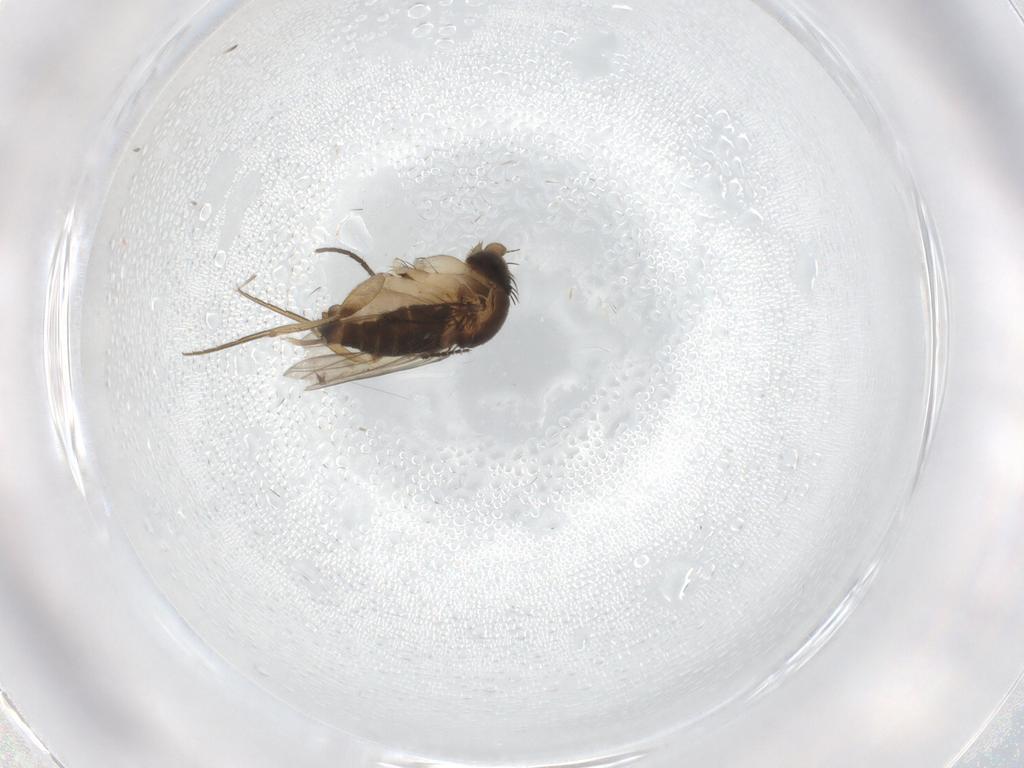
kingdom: Animalia
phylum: Arthropoda
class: Insecta
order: Diptera
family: Phoridae
